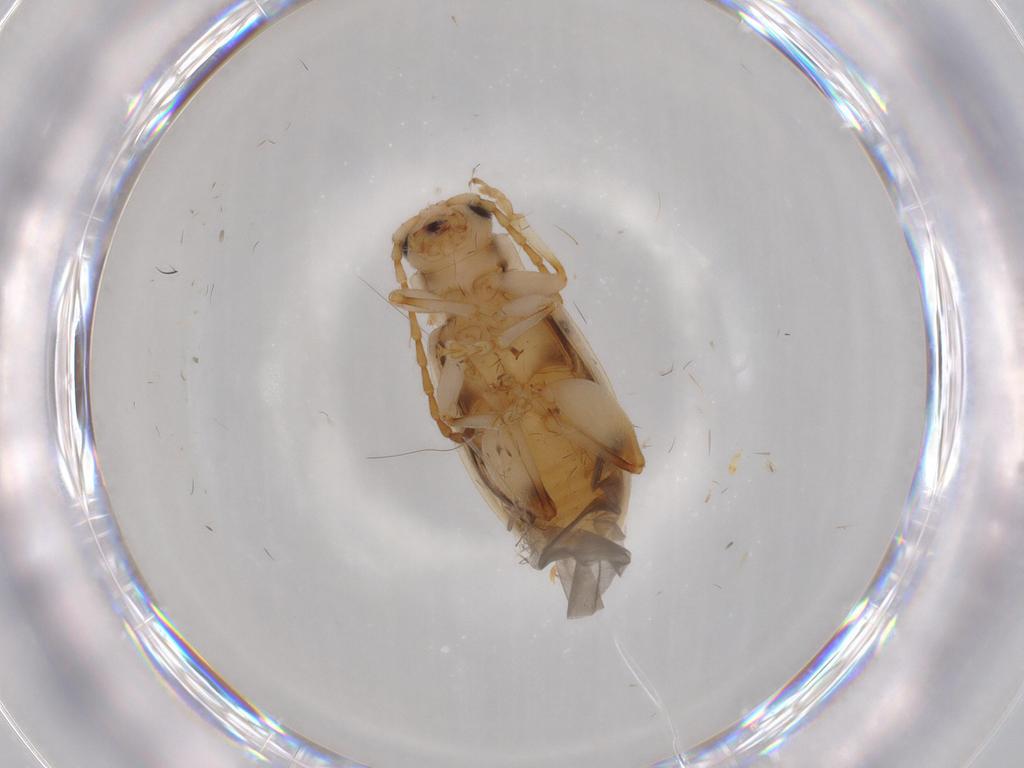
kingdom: Animalia
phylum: Arthropoda
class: Insecta
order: Coleoptera
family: Chrysomelidae
